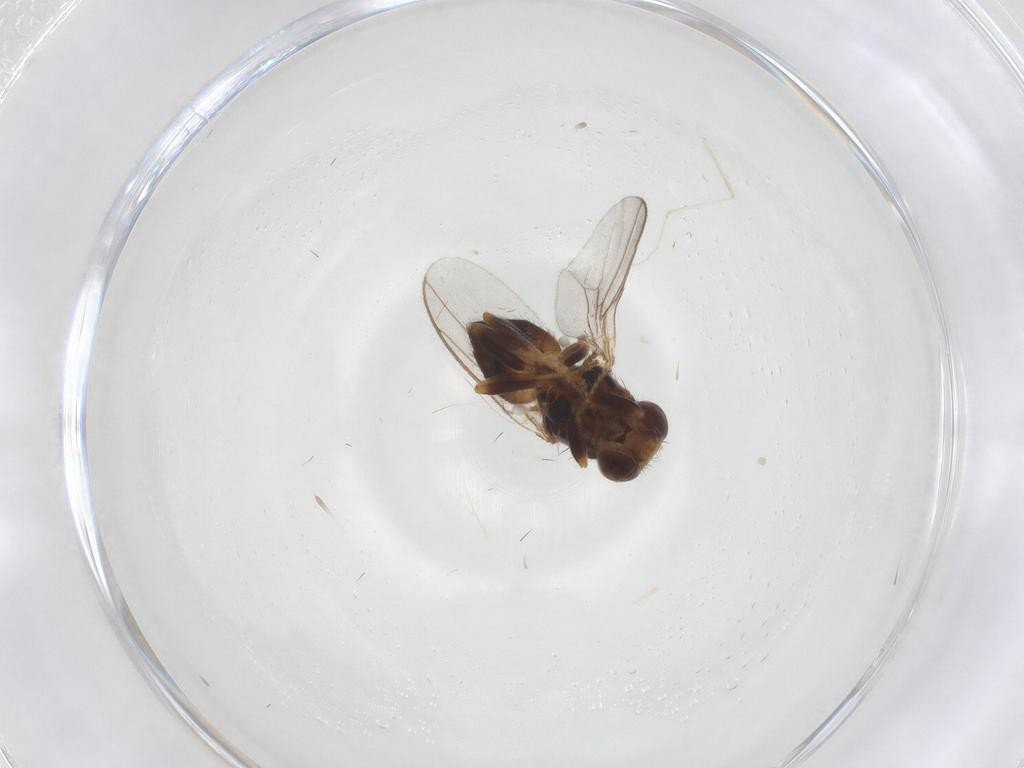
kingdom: Animalia
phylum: Arthropoda
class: Insecta
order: Diptera
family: Chloropidae
